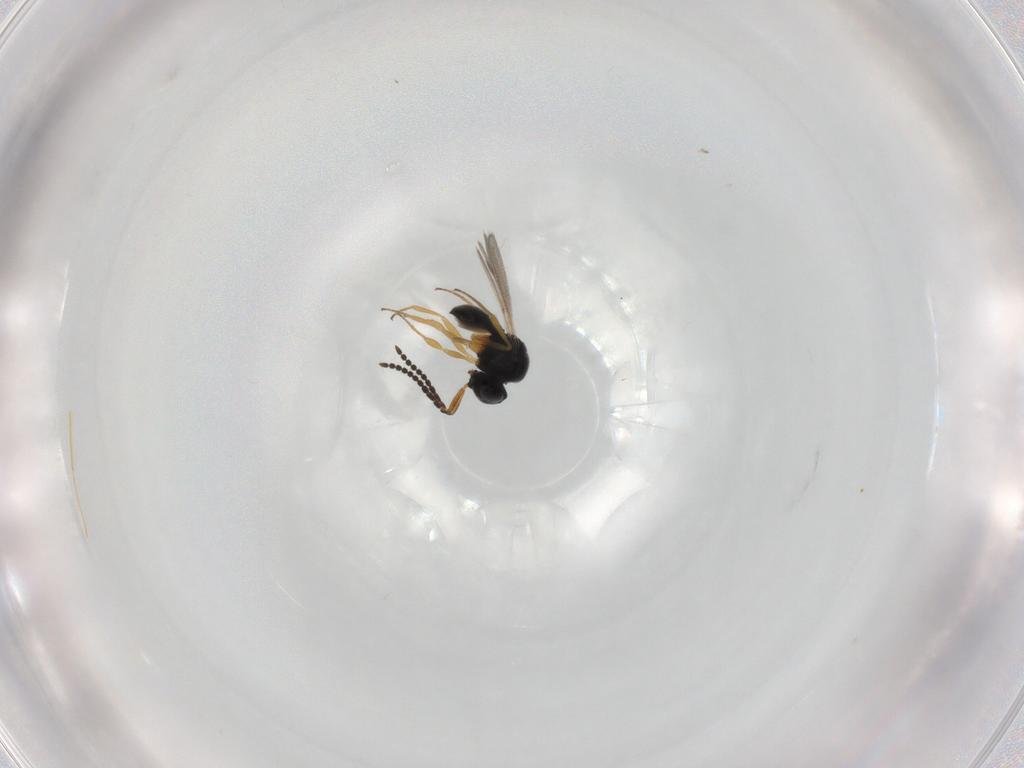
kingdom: Animalia
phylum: Arthropoda
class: Insecta
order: Hymenoptera
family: Scelionidae
